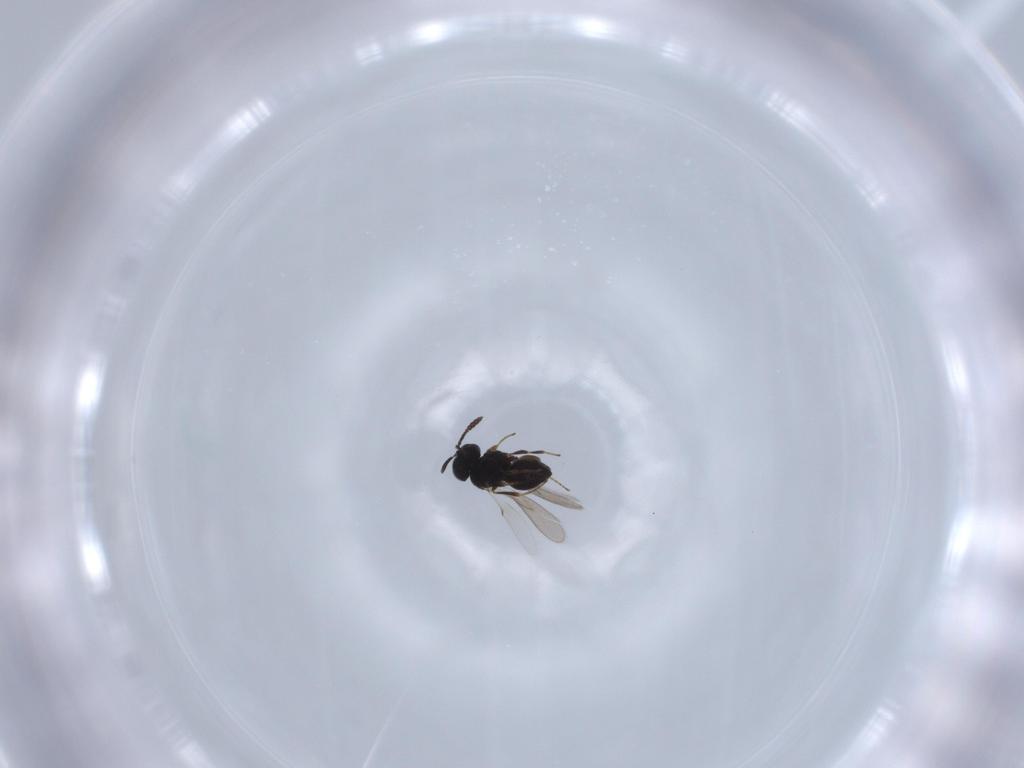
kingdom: Animalia
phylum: Arthropoda
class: Insecta
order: Hymenoptera
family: Scelionidae
